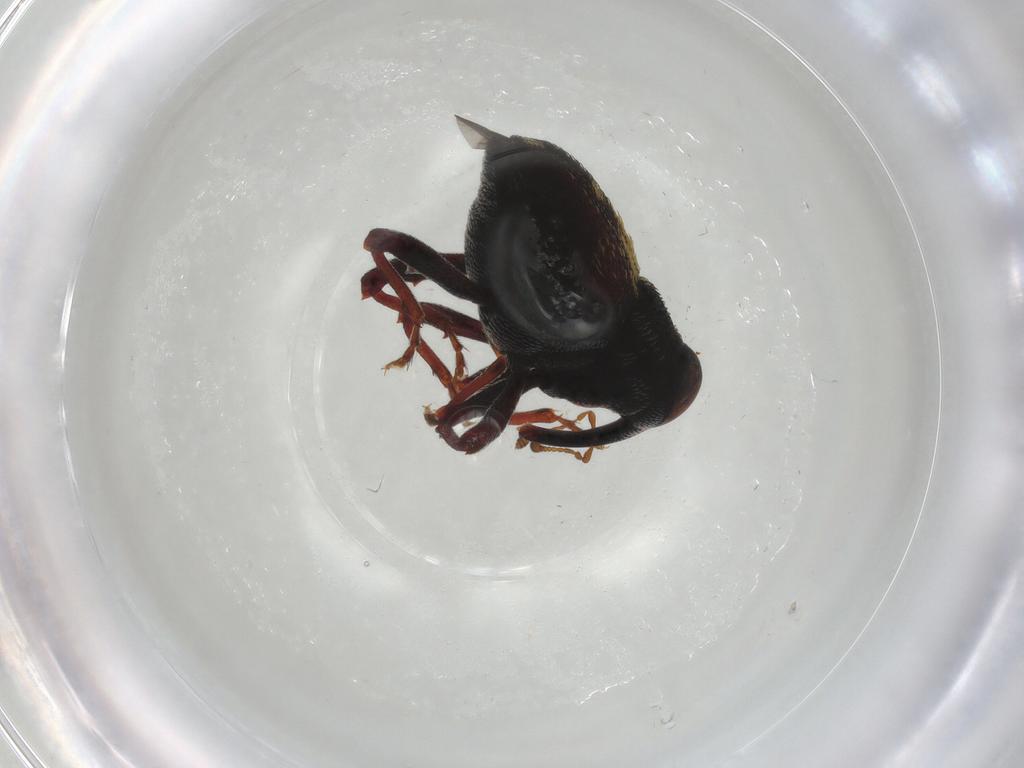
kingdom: Animalia
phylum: Arthropoda
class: Insecta
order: Coleoptera
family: Curculionidae
